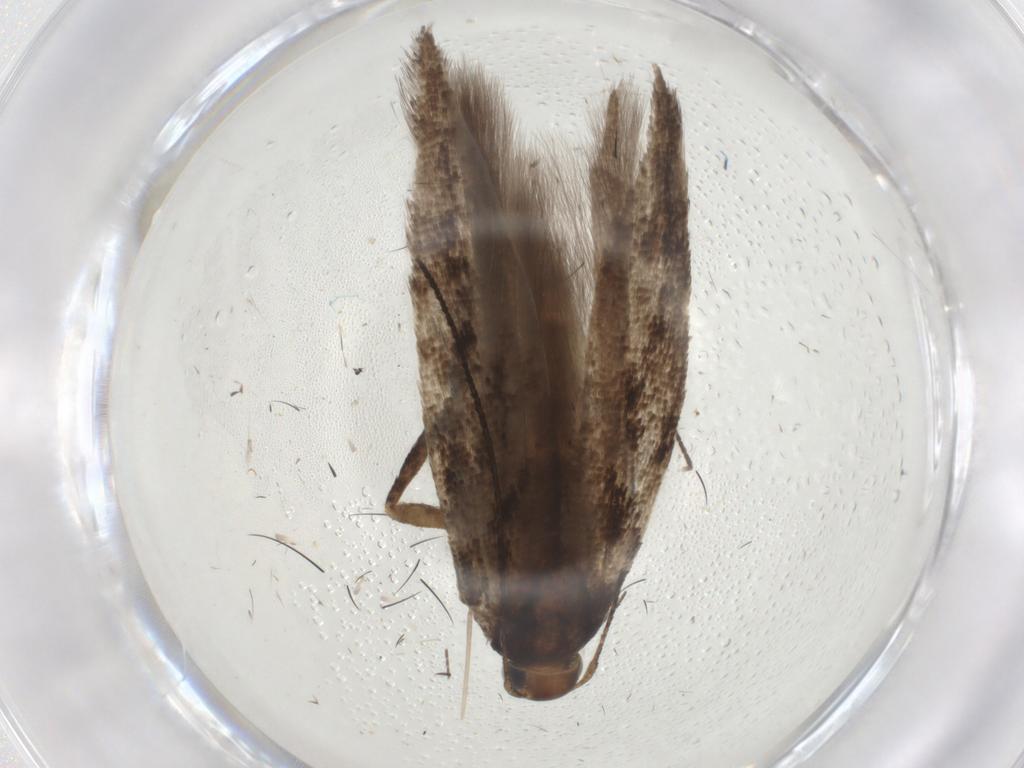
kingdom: Animalia
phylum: Arthropoda
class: Insecta
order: Lepidoptera
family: Gelechiidae
